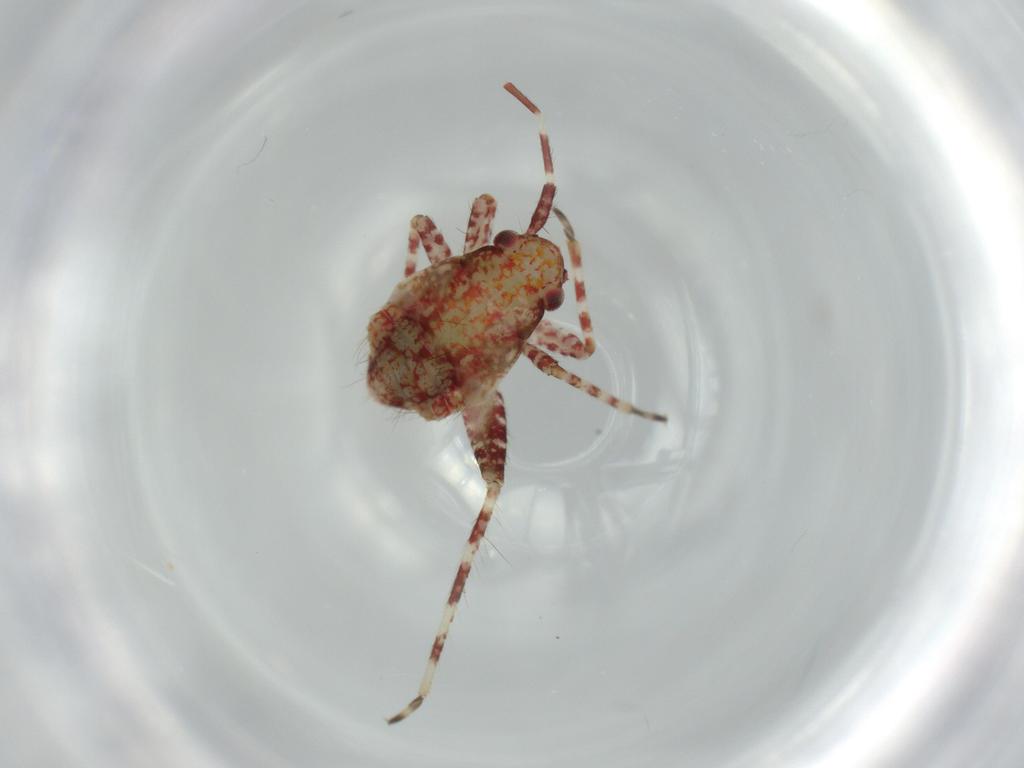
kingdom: Animalia
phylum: Arthropoda
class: Insecta
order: Hemiptera
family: Miridae
